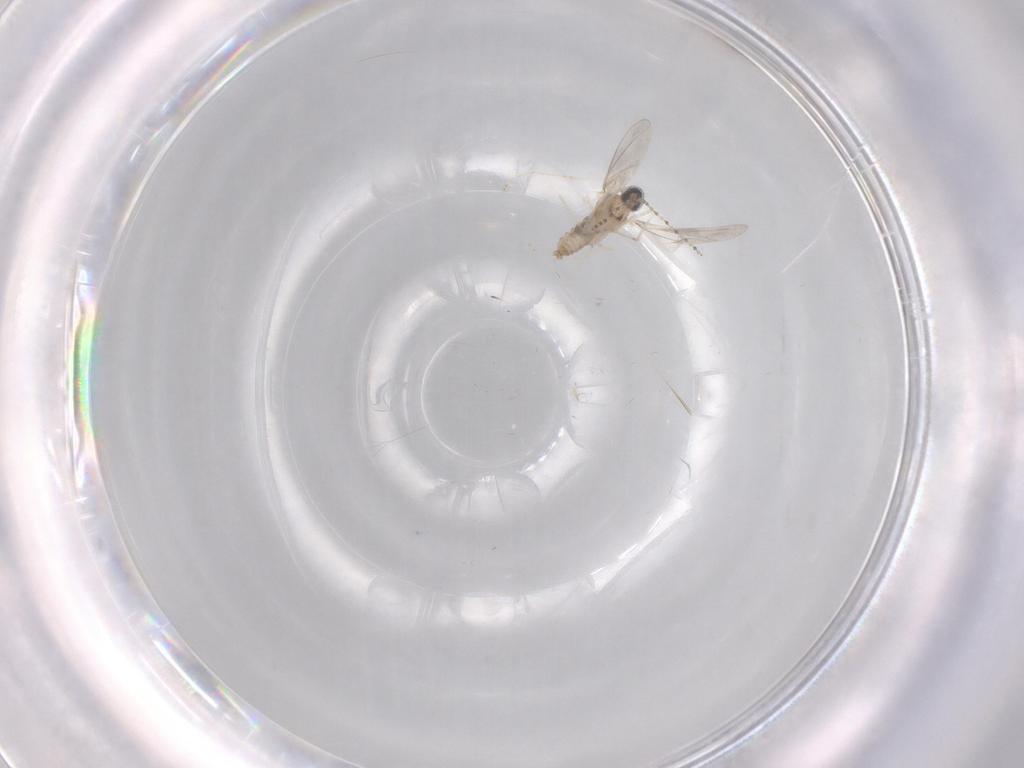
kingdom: Animalia
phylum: Arthropoda
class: Insecta
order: Diptera
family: Cecidomyiidae
